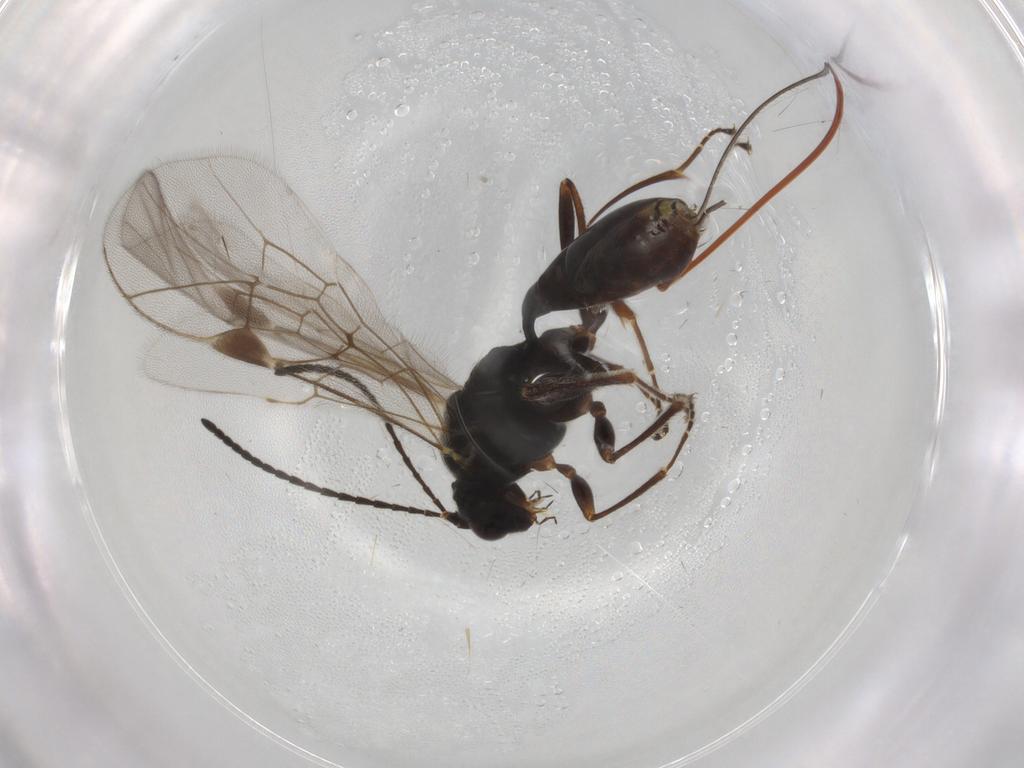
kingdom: Animalia
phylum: Arthropoda
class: Insecta
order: Hymenoptera
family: Ichneumonidae
